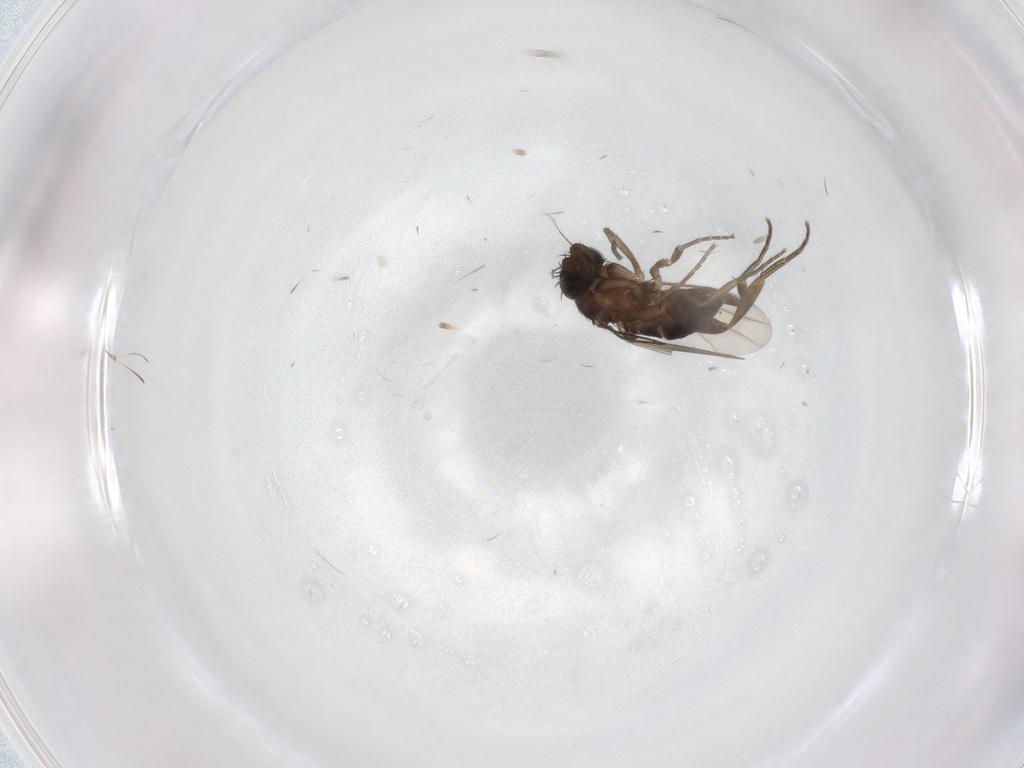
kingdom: Animalia
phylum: Arthropoda
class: Insecta
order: Diptera
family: Phoridae
